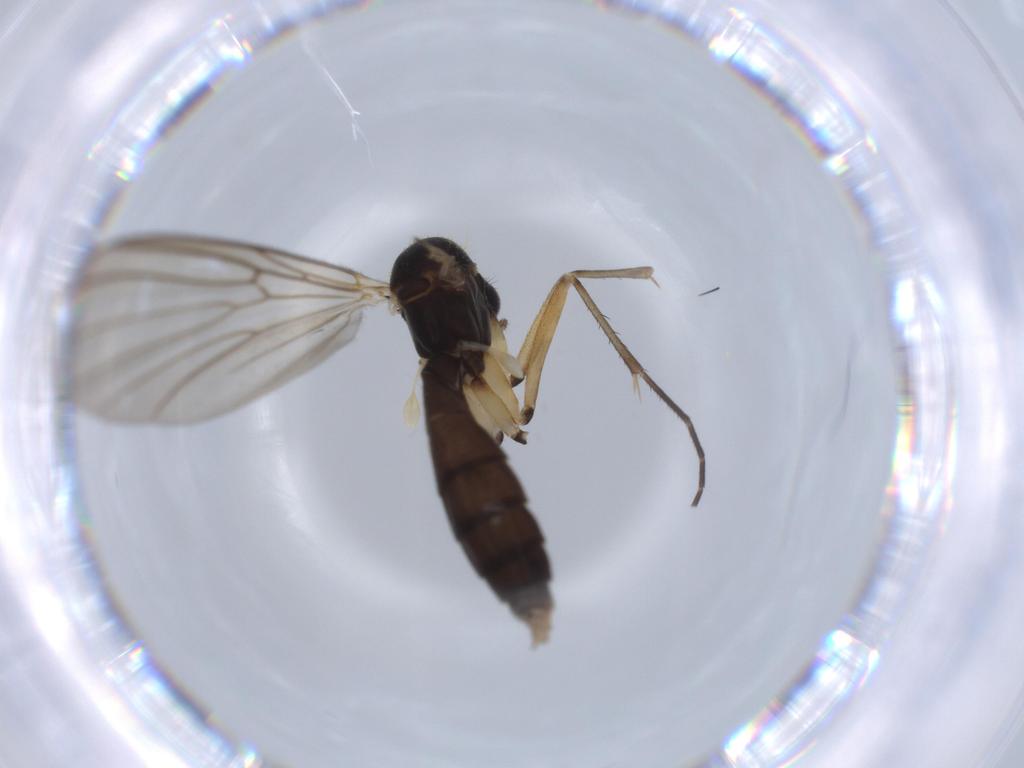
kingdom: Animalia
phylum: Arthropoda
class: Insecta
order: Diptera
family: Mycetophilidae
